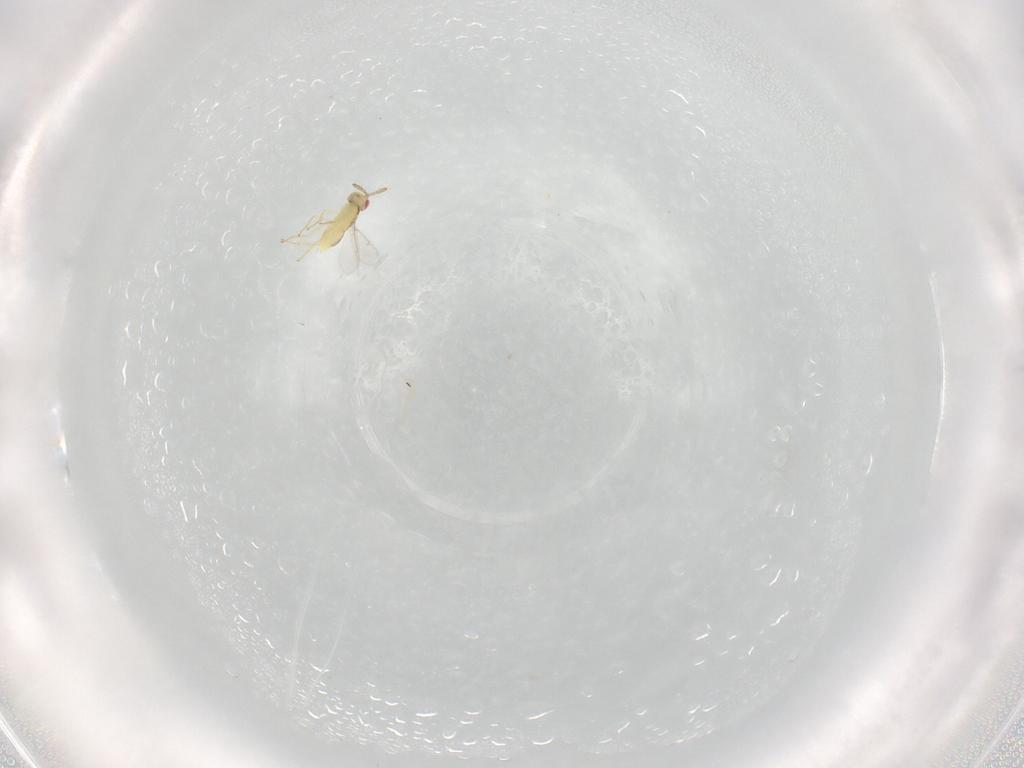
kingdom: Animalia
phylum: Arthropoda
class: Insecta
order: Hymenoptera
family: Aphelinidae
